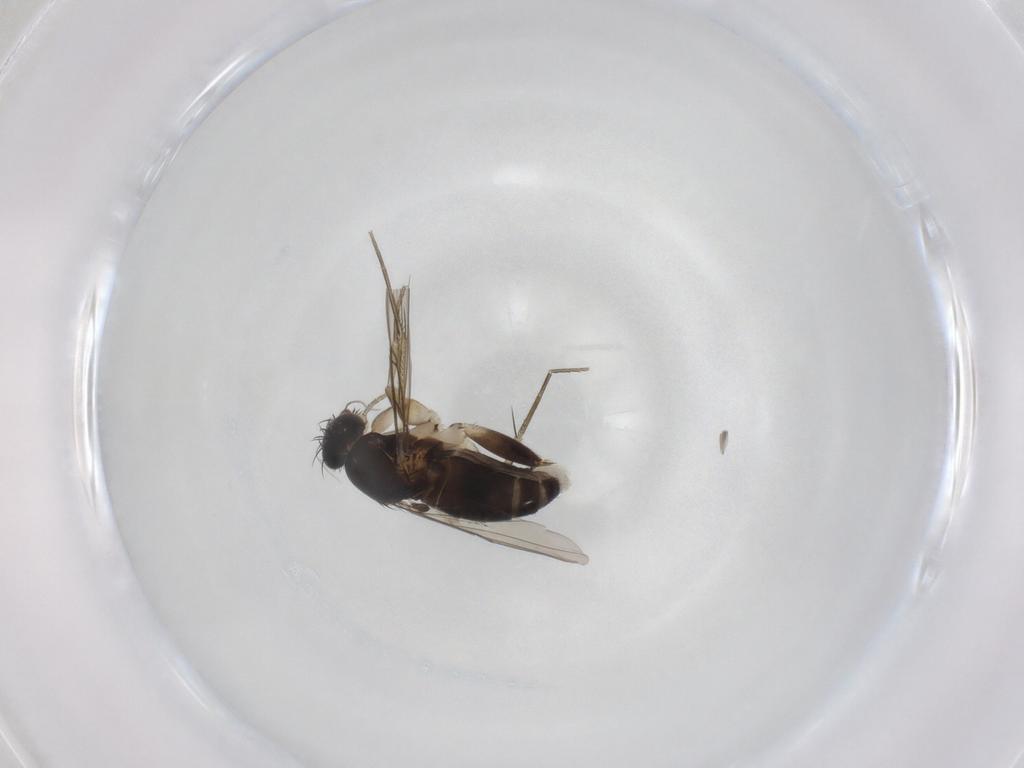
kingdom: Animalia
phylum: Arthropoda
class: Insecta
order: Diptera
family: Phoridae
